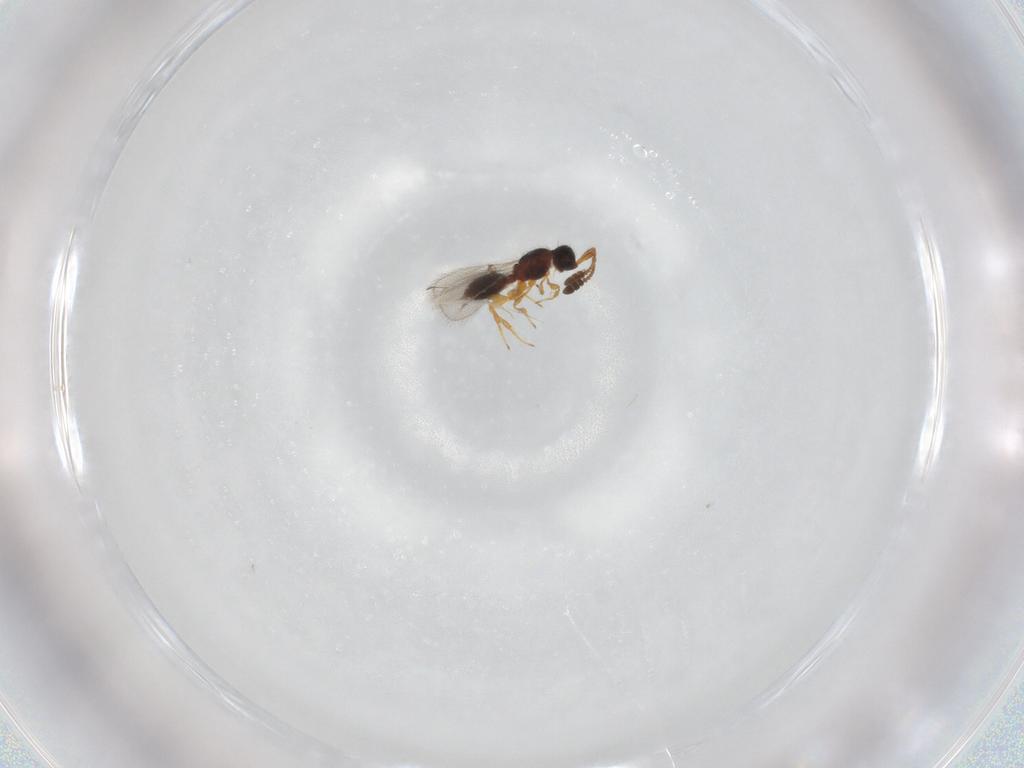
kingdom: Animalia
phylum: Arthropoda
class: Insecta
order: Hymenoptera
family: Diapriidae
